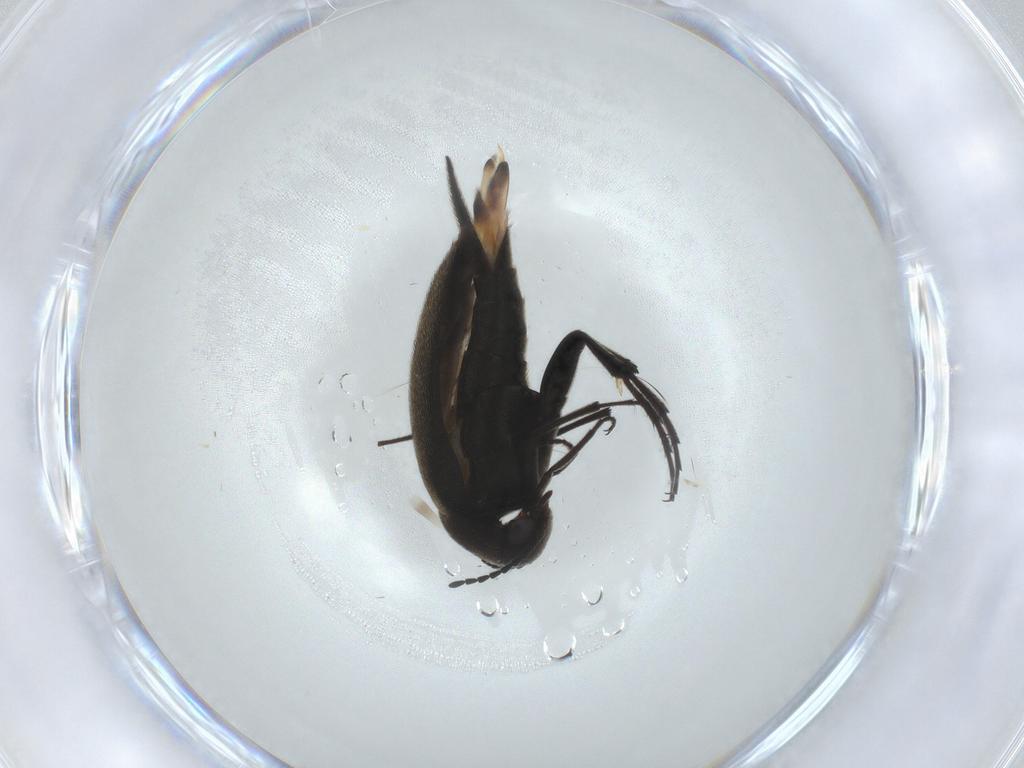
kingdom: Animalia
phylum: Arthropoda
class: Insecta
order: Coleoptera
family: Mordellidae
